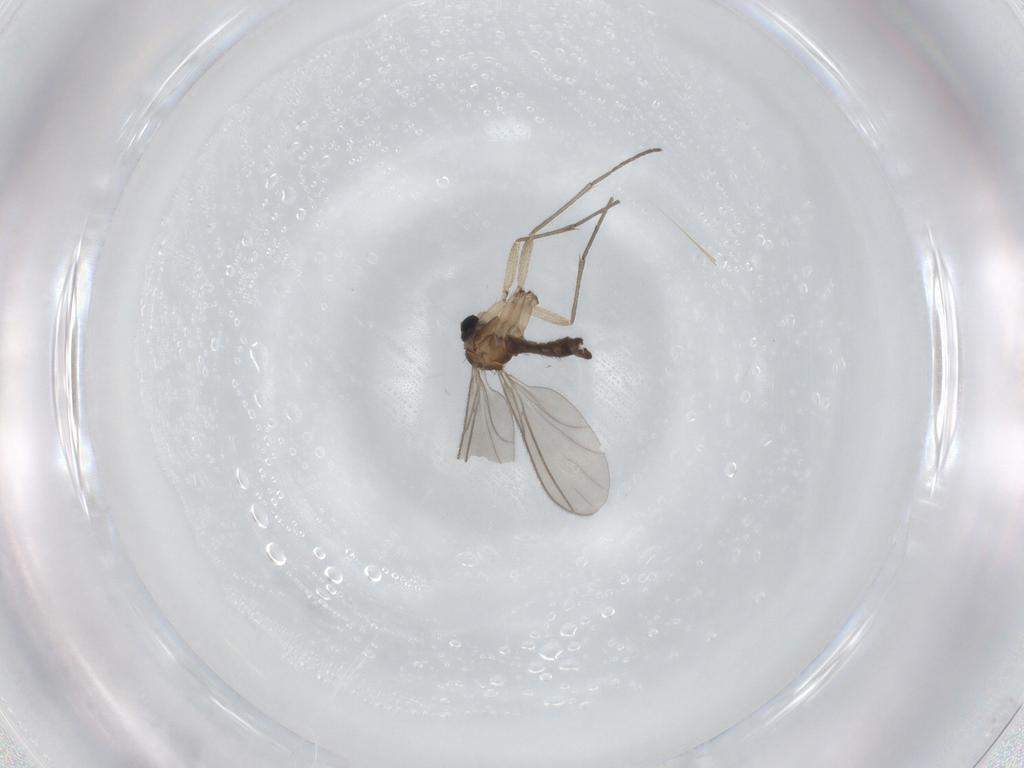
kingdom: Animalia
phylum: Arthropoda
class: Insecta
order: Diptera
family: Sciaridae
